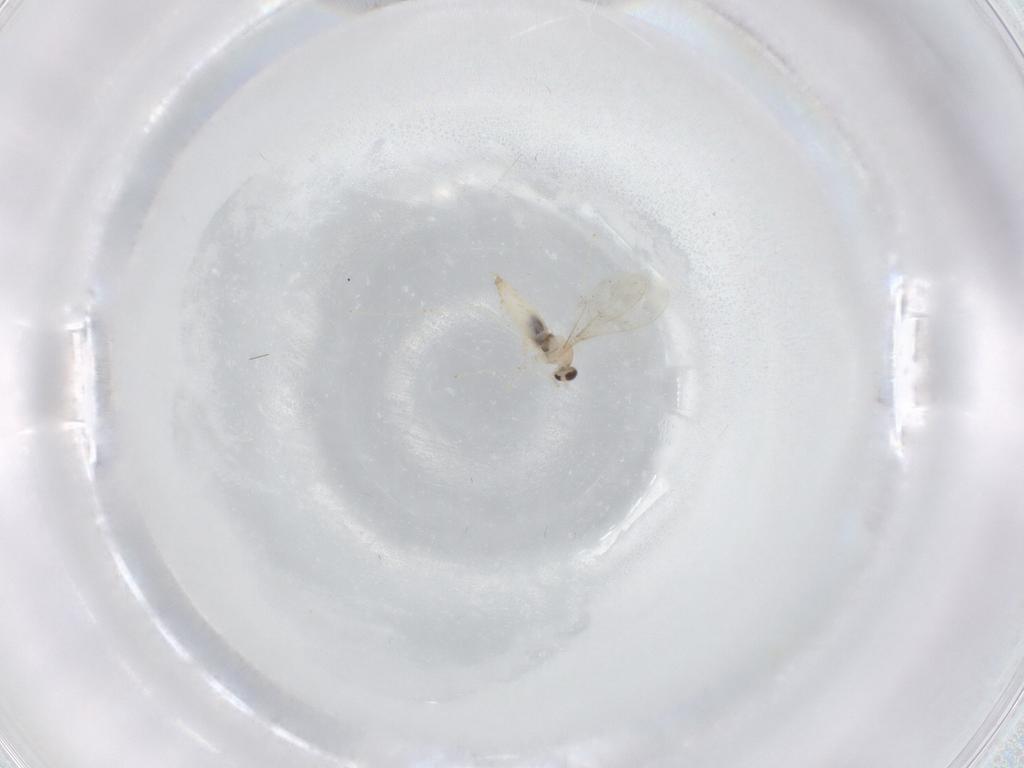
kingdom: Animalia
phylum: Arthropoda
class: Insecta
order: Diptera
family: Cecidomyiidae
